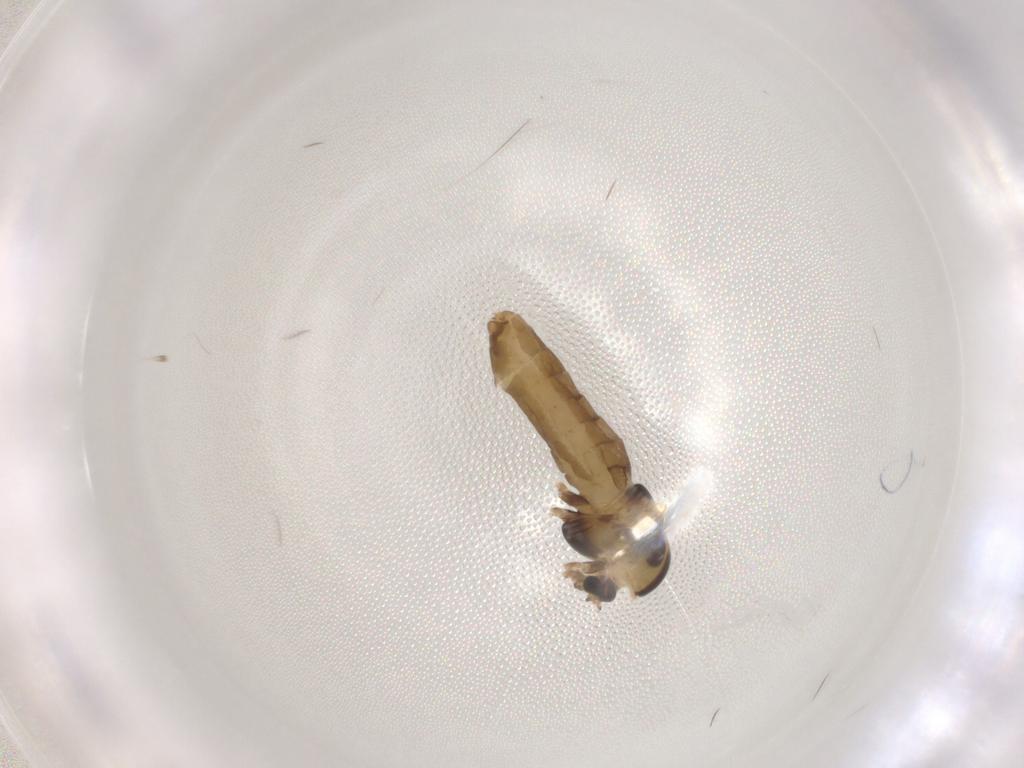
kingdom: Animalia
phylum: Arthropoda
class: Insecta
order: Diptera
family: Chironomidae
